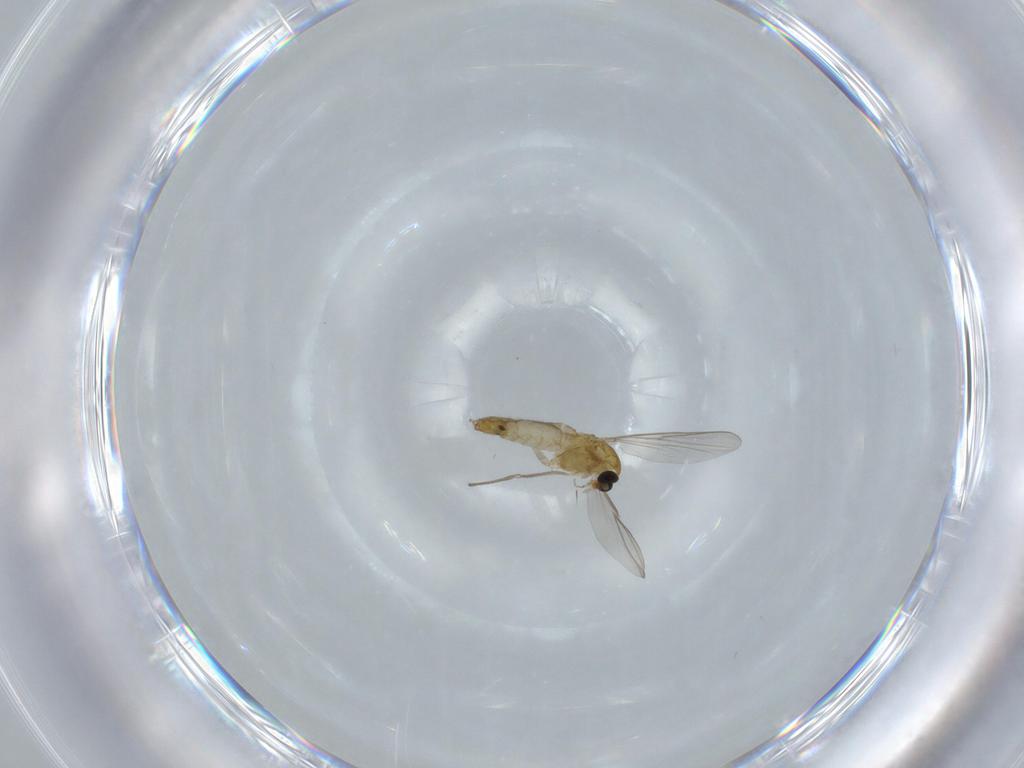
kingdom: Animalia
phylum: Arthropoda
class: Insecta
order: Diptera
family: Chironomidae
